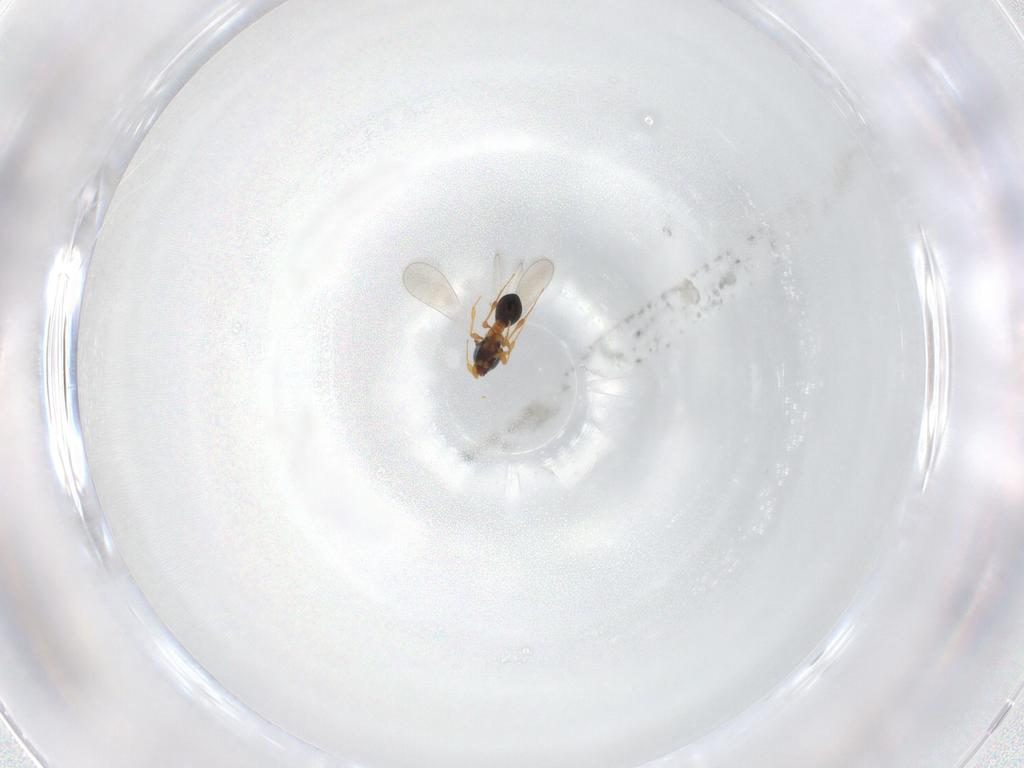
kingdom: Animalia
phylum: Arthropoda
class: Insecta
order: Hymenoptera
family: Platygastridae
